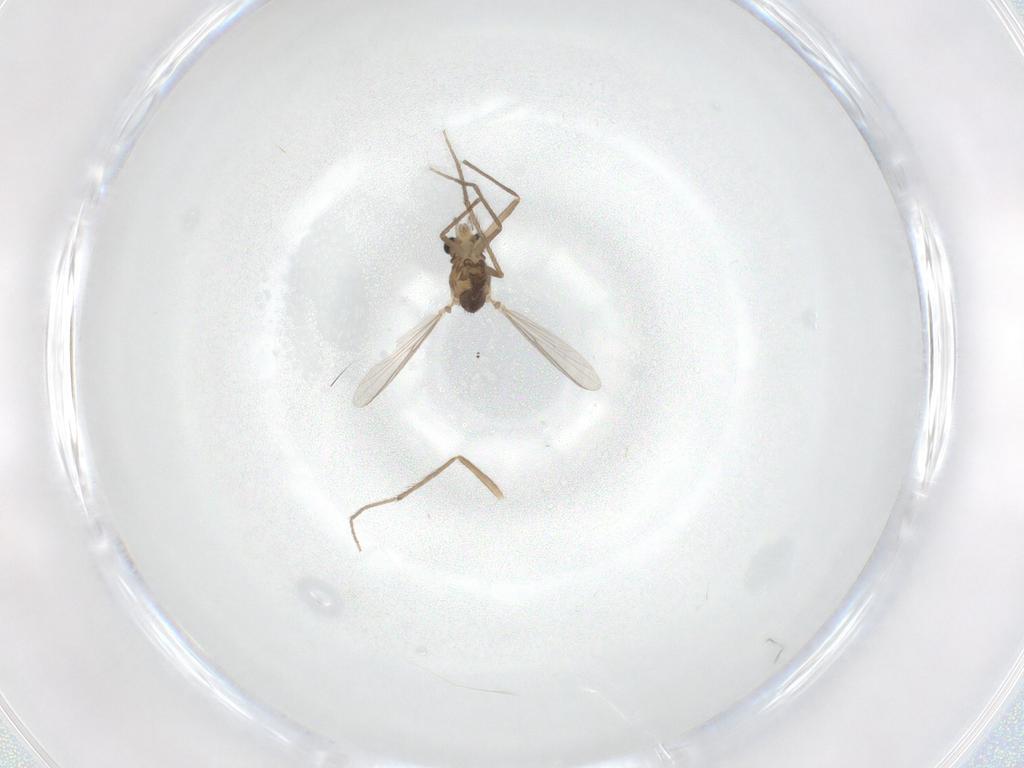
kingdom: Animalia
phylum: Arthropoda
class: Insecta
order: Diptera
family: Chironomidae
